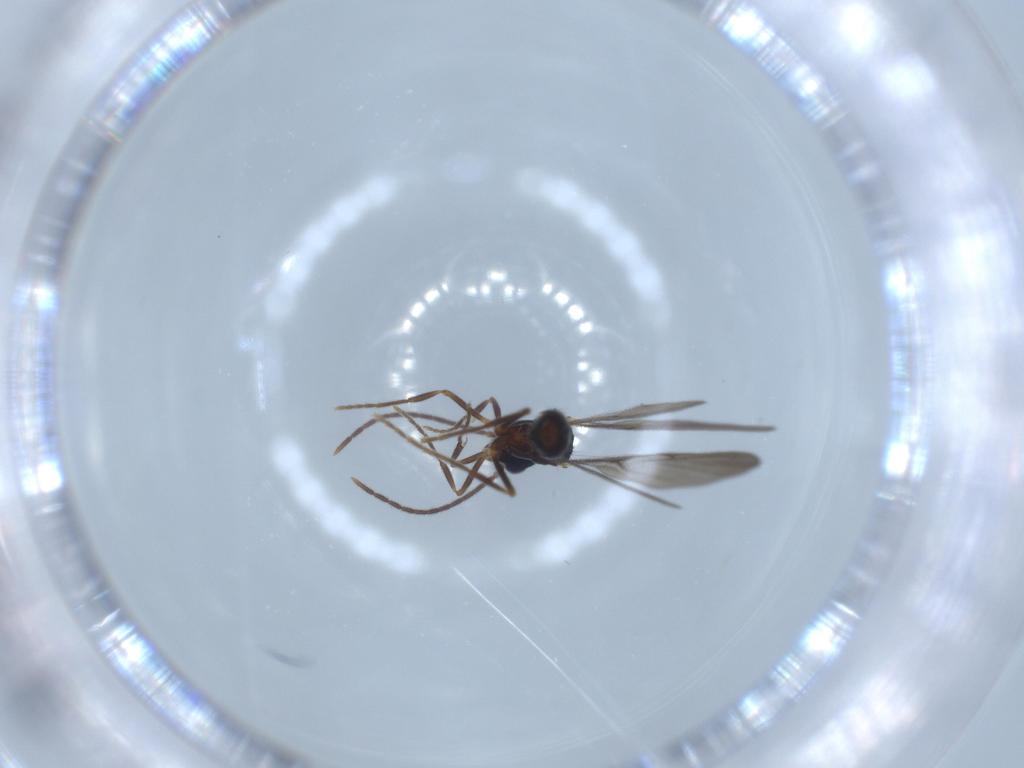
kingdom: Animalia
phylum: Arthropoda
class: Insecta
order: Hymenoptera
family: Formicidae
